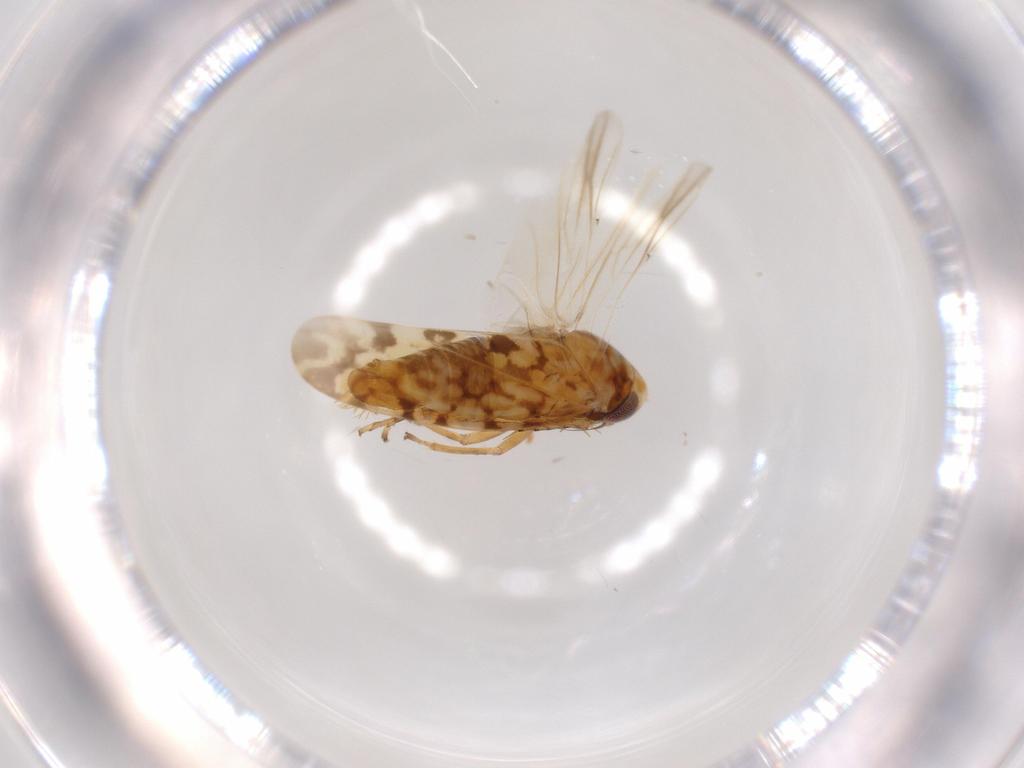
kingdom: Animalia
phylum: Arthropoda
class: Insecta
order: Hemiptera
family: Cicadellidae
